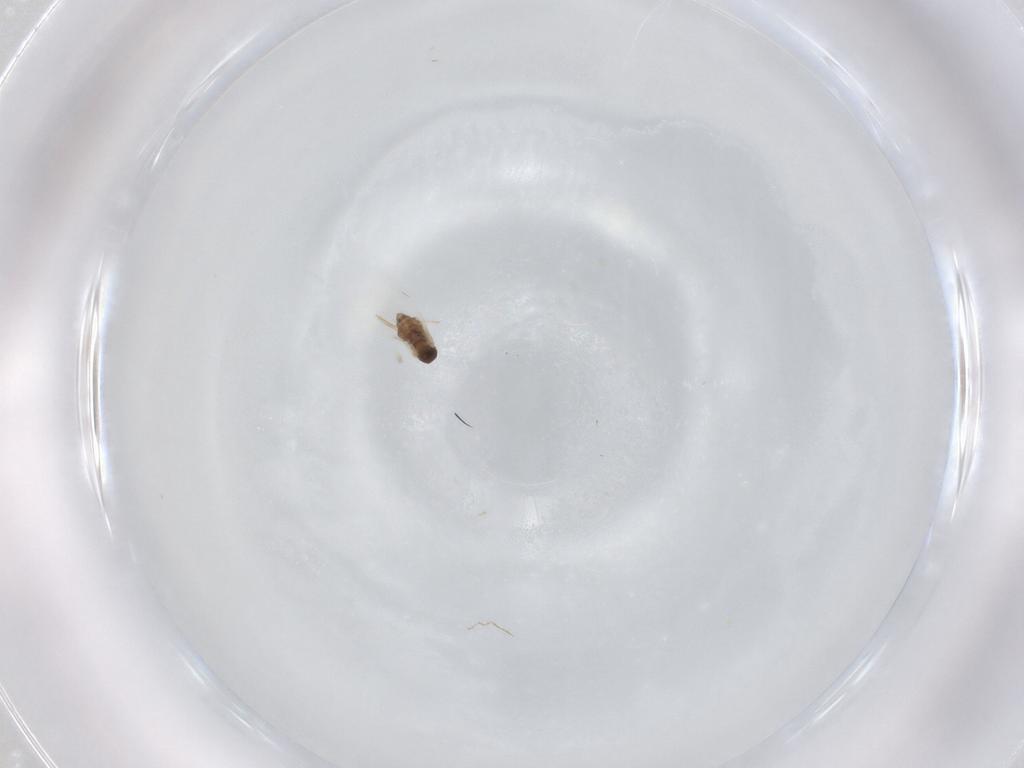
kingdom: Animalia
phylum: Arthropoda
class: Insecta
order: Diptera
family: Cecidomyiidae
